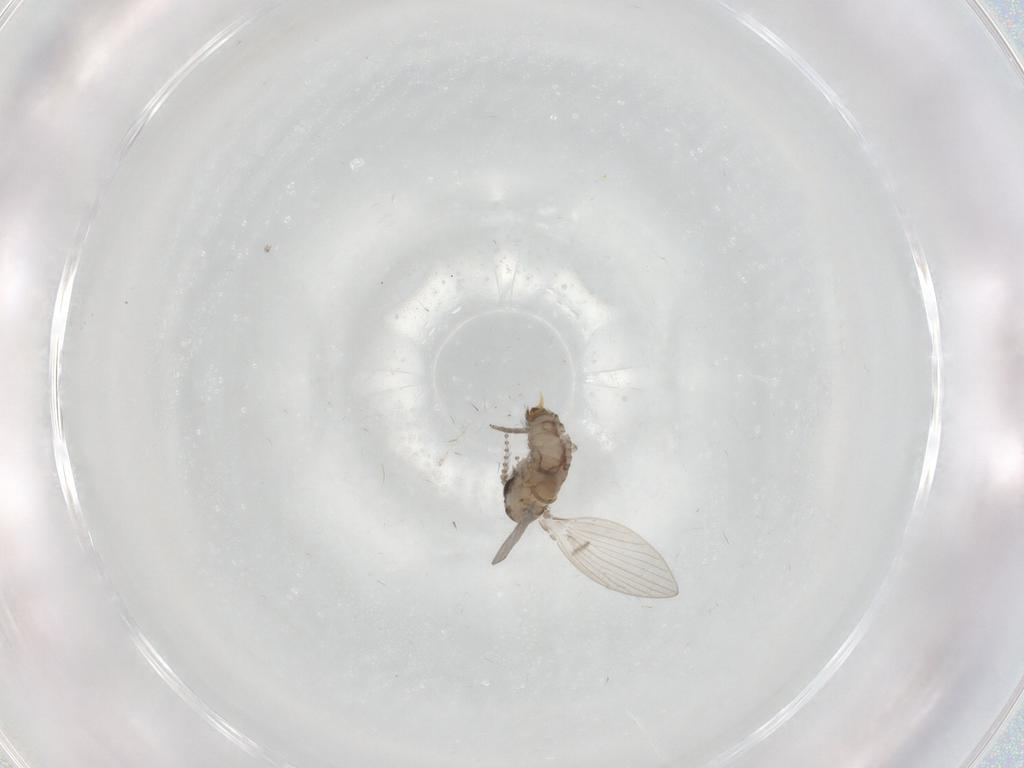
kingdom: Animalia
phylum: Arthropoda
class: Insecta
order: Diptera
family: Psychodidae
